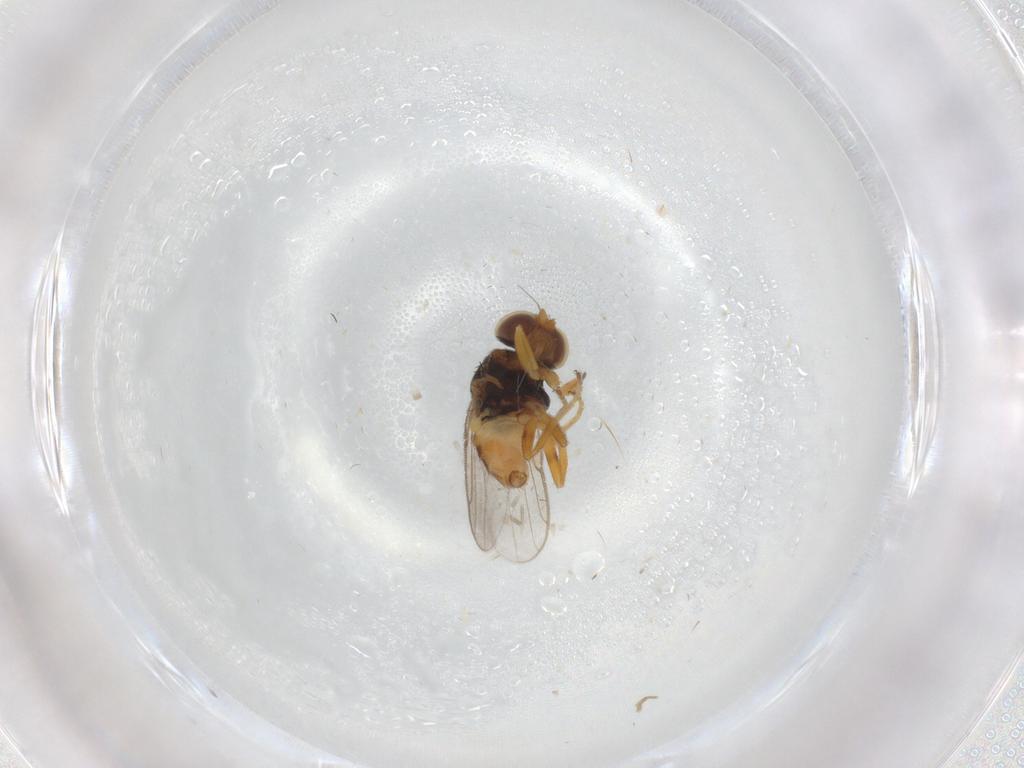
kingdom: Animalia
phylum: Arthropoda
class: Insecta
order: Diptera
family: Chloropidae
